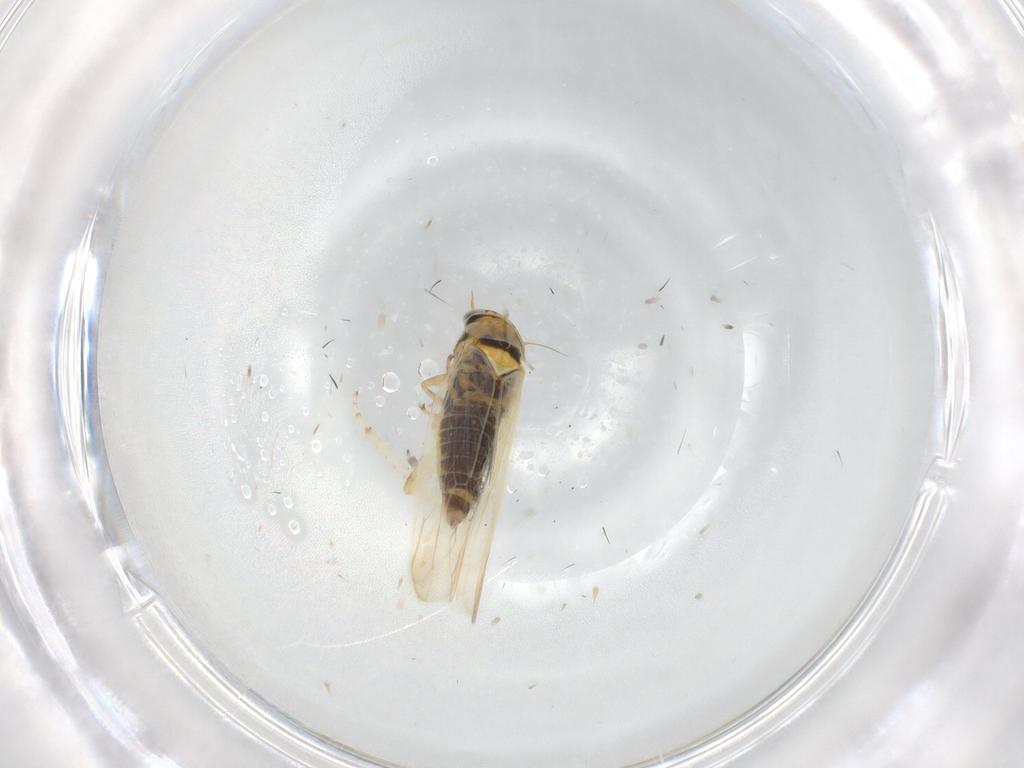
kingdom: Animalia
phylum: Arthropoda
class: Insecta
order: Hemiptera
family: Cicadellidae
